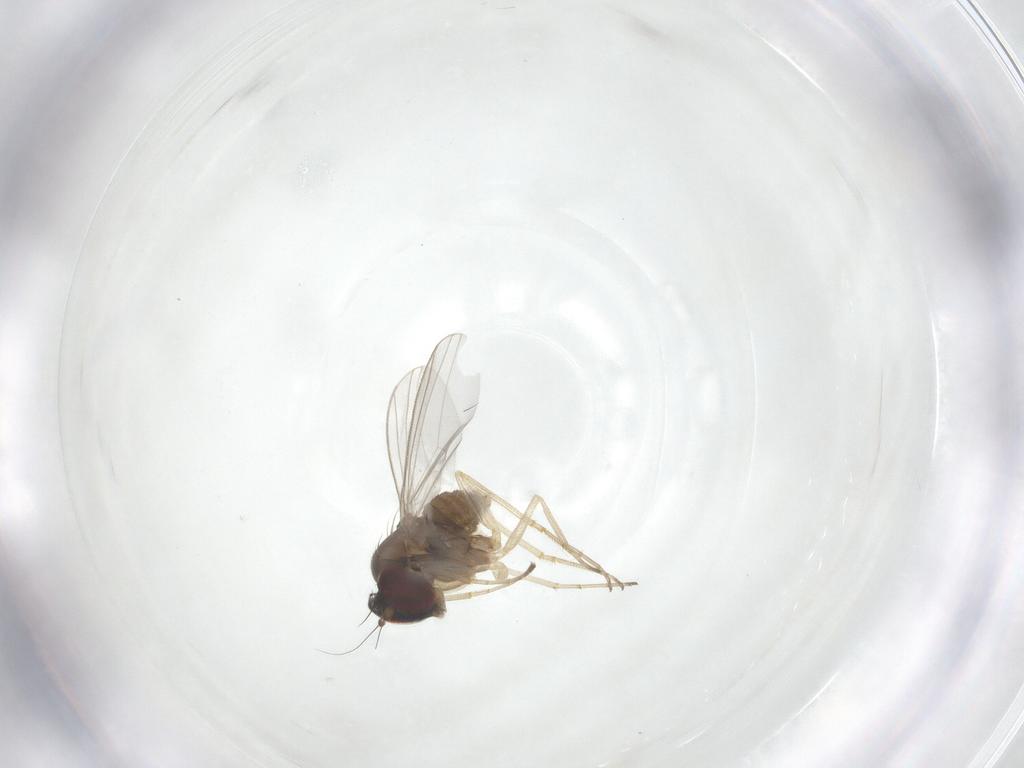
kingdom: Animalia
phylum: Arthropoda
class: Insecta
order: Diptera
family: Dolichopodidae
